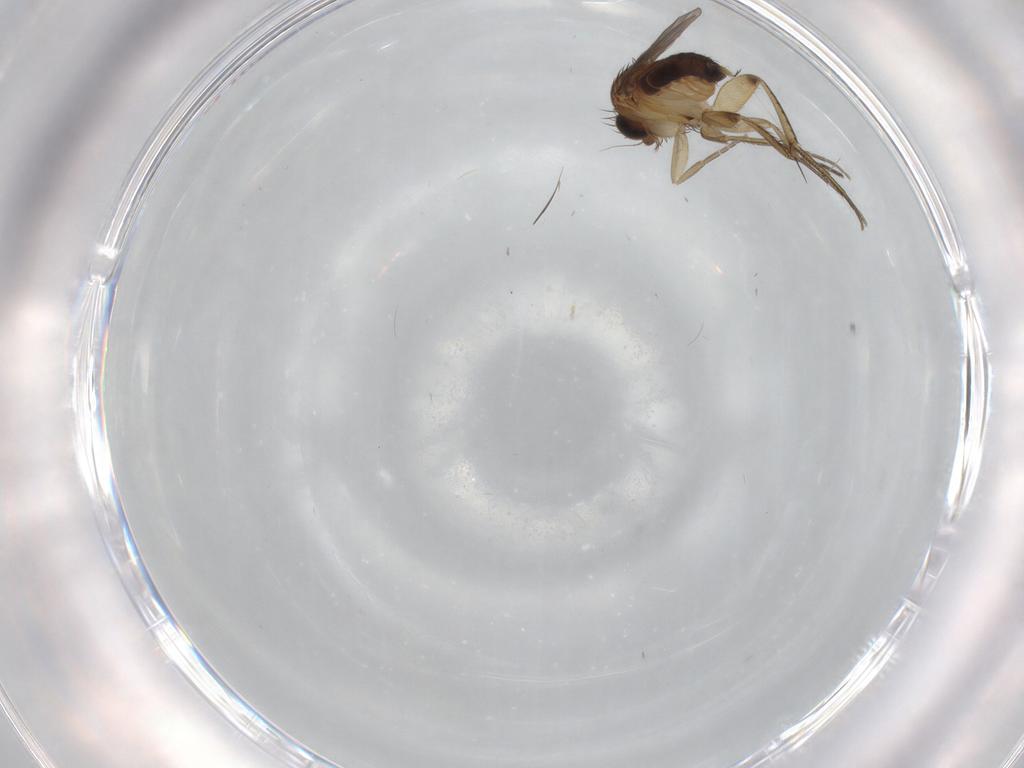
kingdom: Animalia
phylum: Arthropoda
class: Insecta
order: Diptera
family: Phoridae
